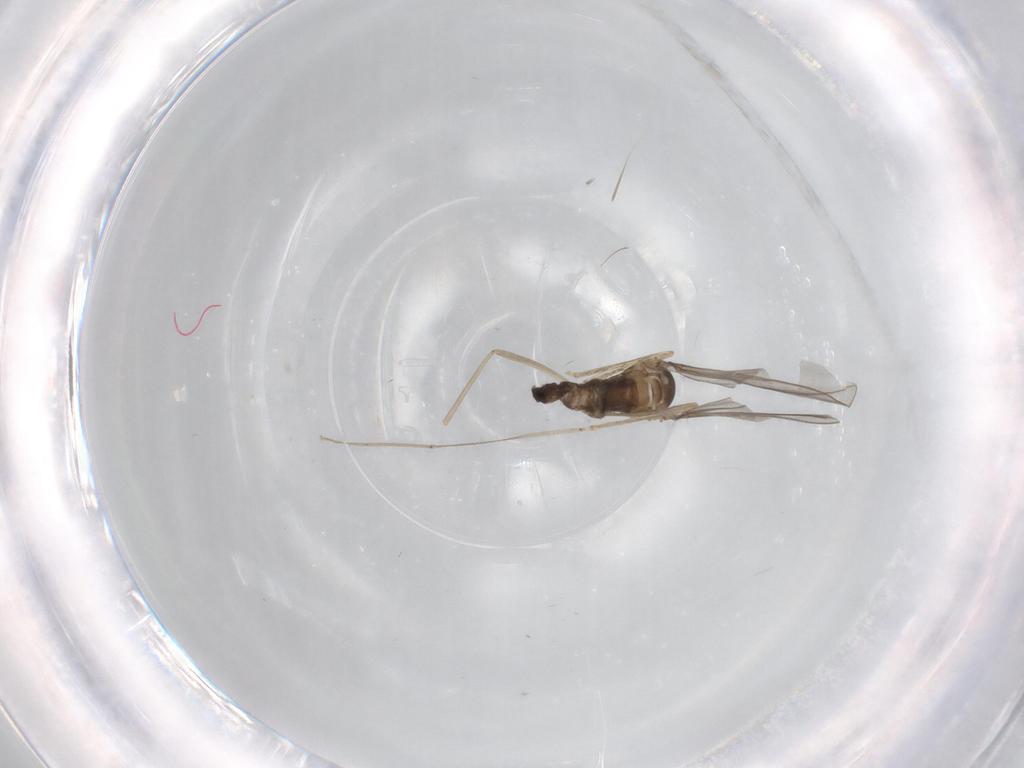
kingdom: Animalia
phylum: Arthropoda
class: Insecta
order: Diptera
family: Cecidomyiidae
